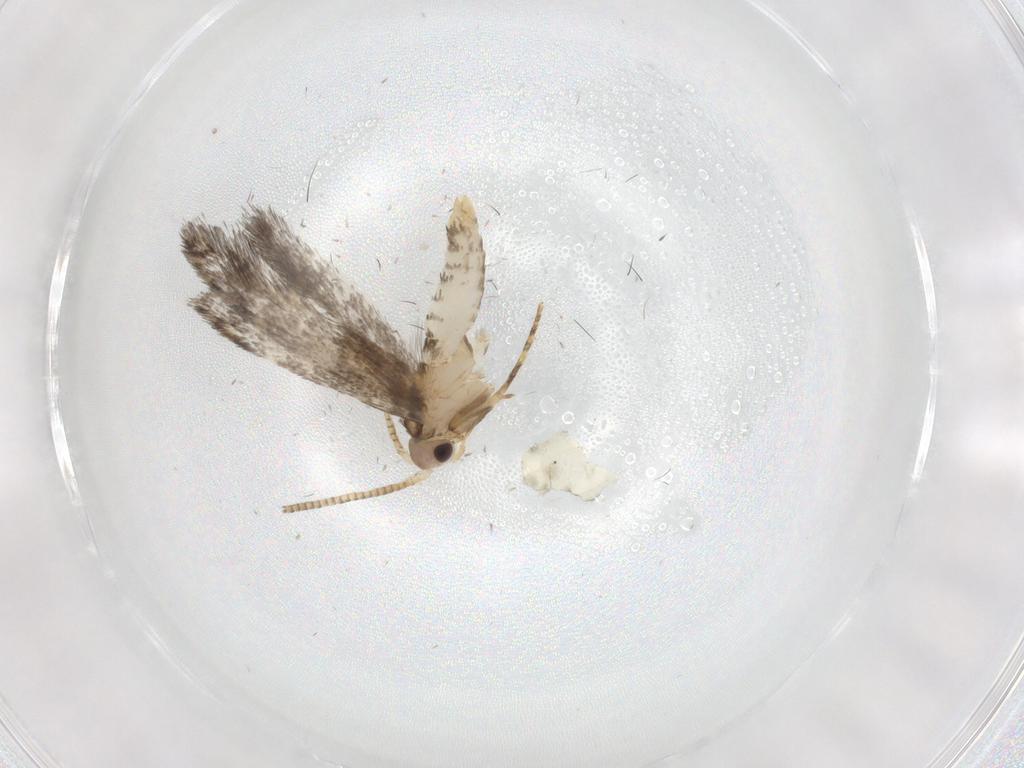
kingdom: Animalia
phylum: Arthropoda
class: Insecta
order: Lepidoptera
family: Tineidae
